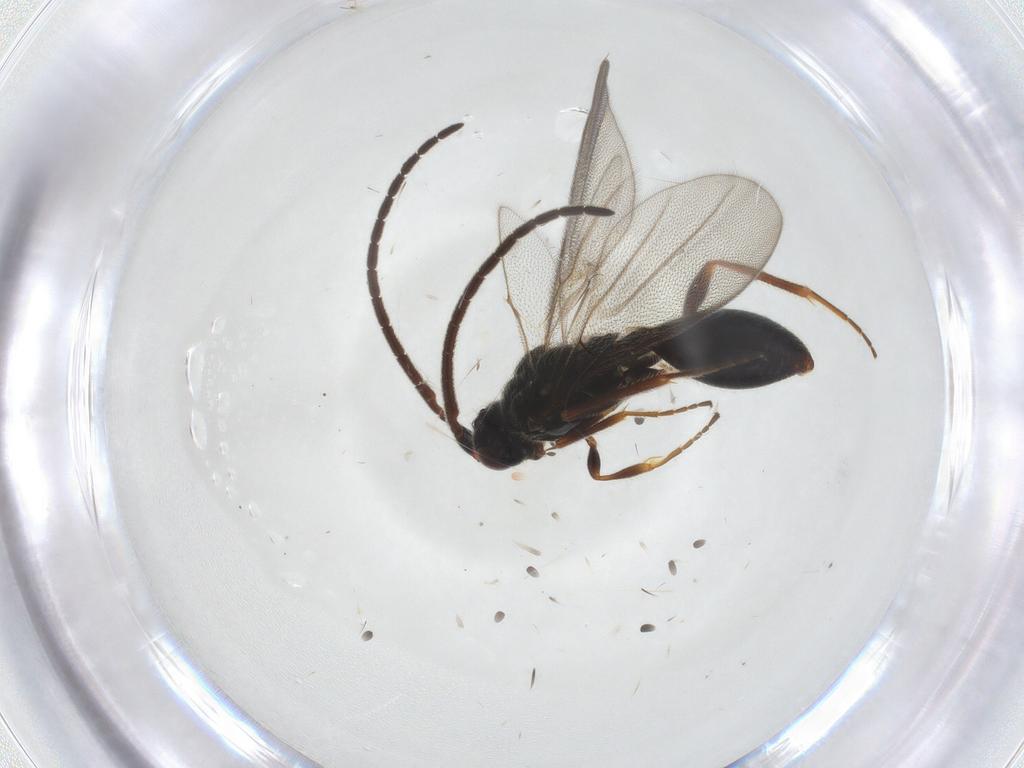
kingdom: Animalia
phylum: Arthropoda
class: Insecta
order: Hymenoptera
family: Diapriidae
